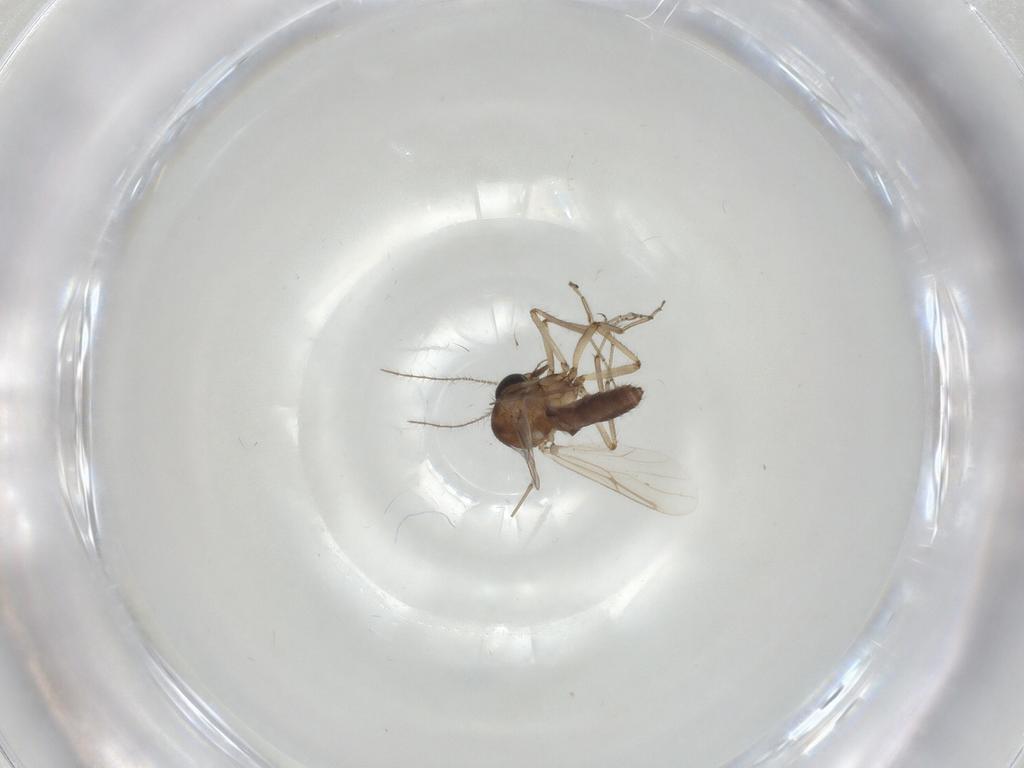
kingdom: Animalia
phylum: Arthropoda
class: Insecta
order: Diptera
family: Ceratopogonidae
